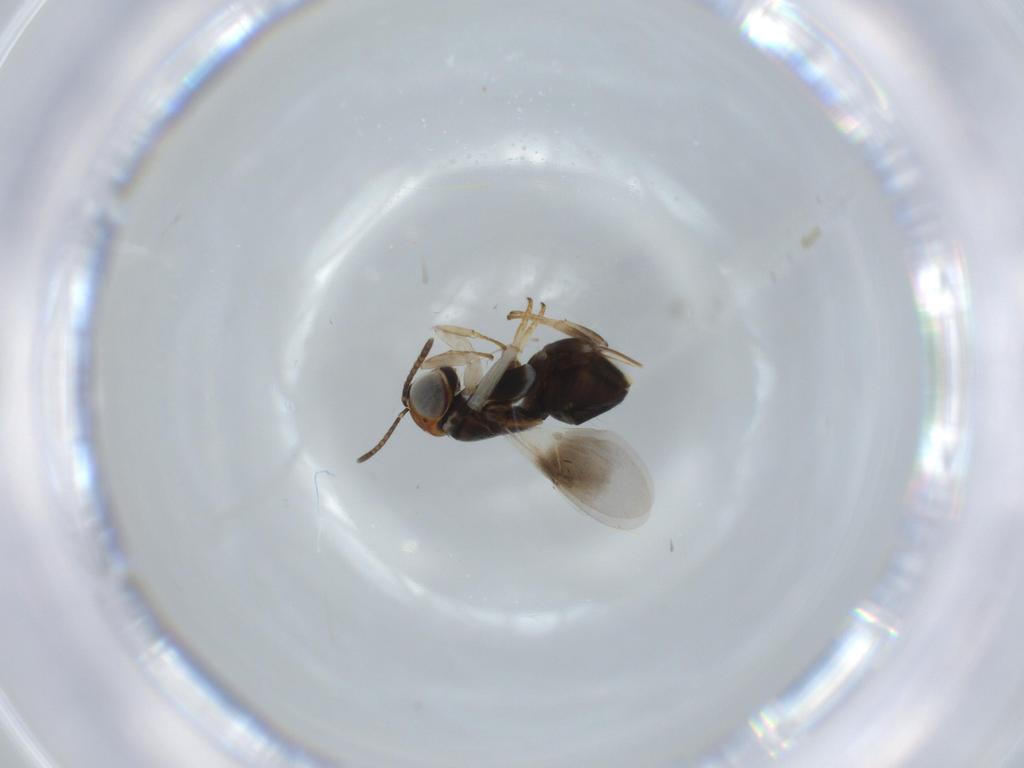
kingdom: Animalia
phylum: Arthropoda
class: Insecta
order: Hymenoptera
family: Scelionidae
